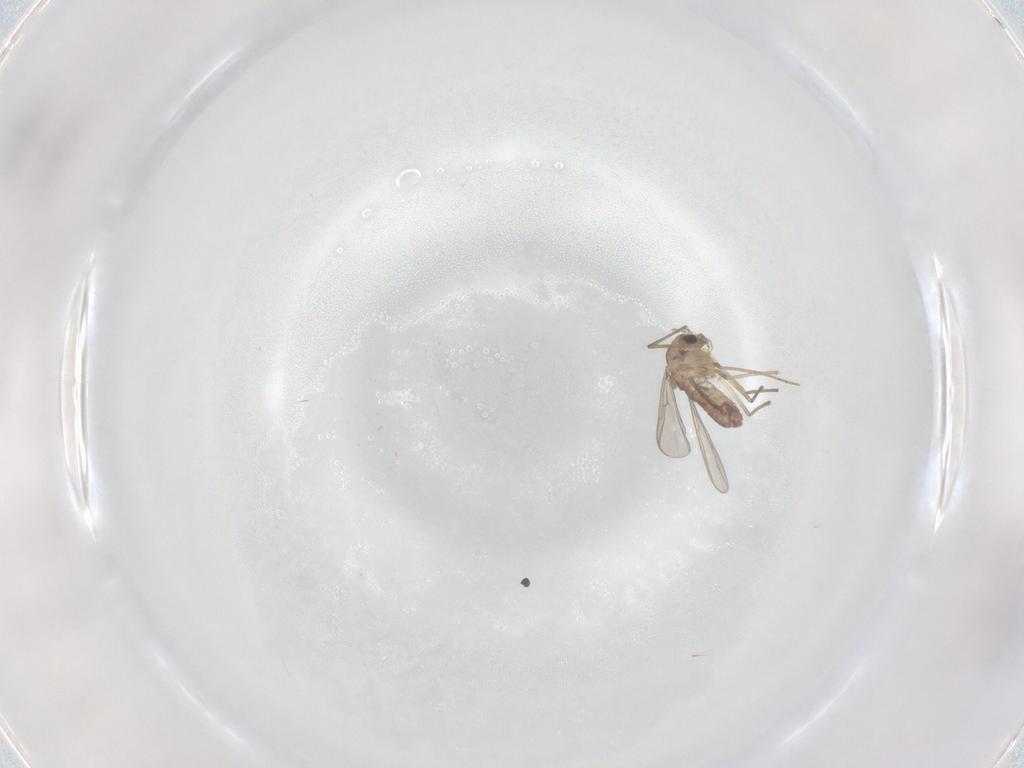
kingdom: Animalia
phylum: Arthropoda
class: Insecta
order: Diptera
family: Chironomidae
